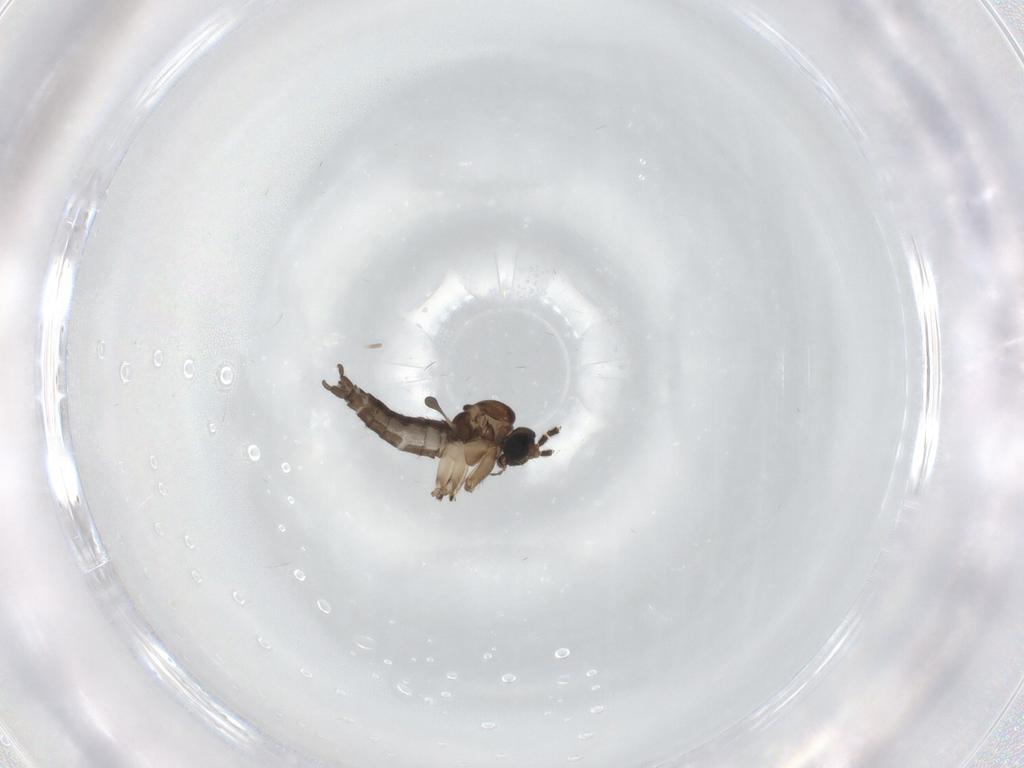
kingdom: Animalia
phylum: Arthropoda
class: Insecta
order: Diptera
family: Sciaridae
